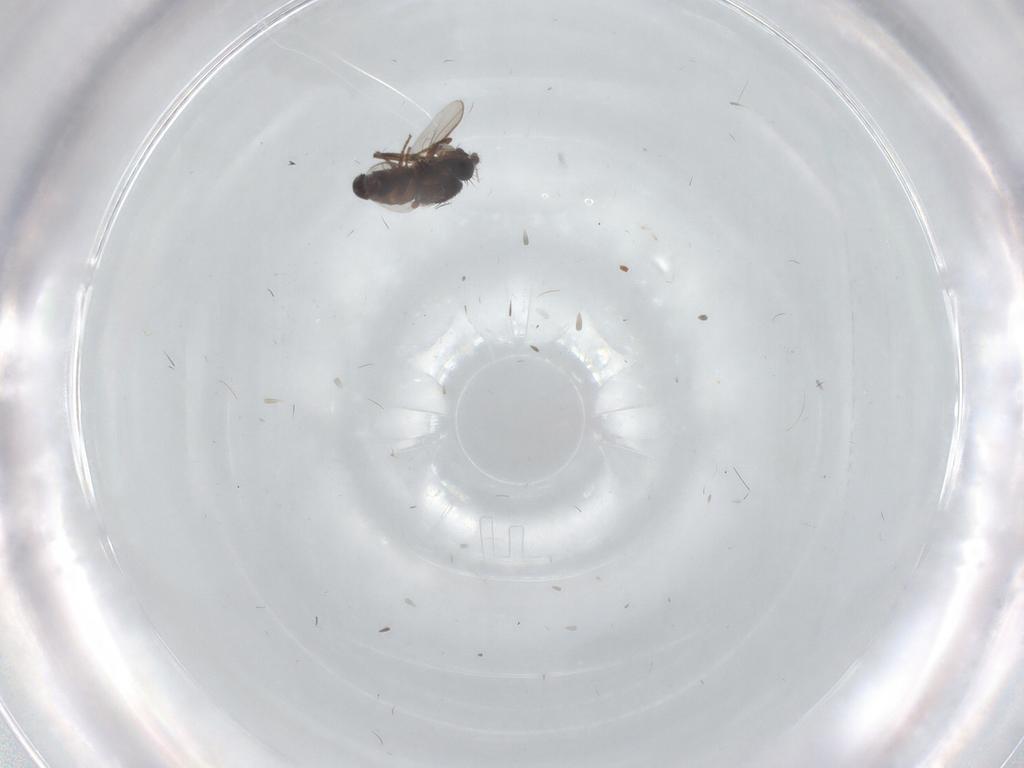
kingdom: Animalia
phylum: Arthropoda
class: Insecta
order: Diptera
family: Sphaeroceridae
